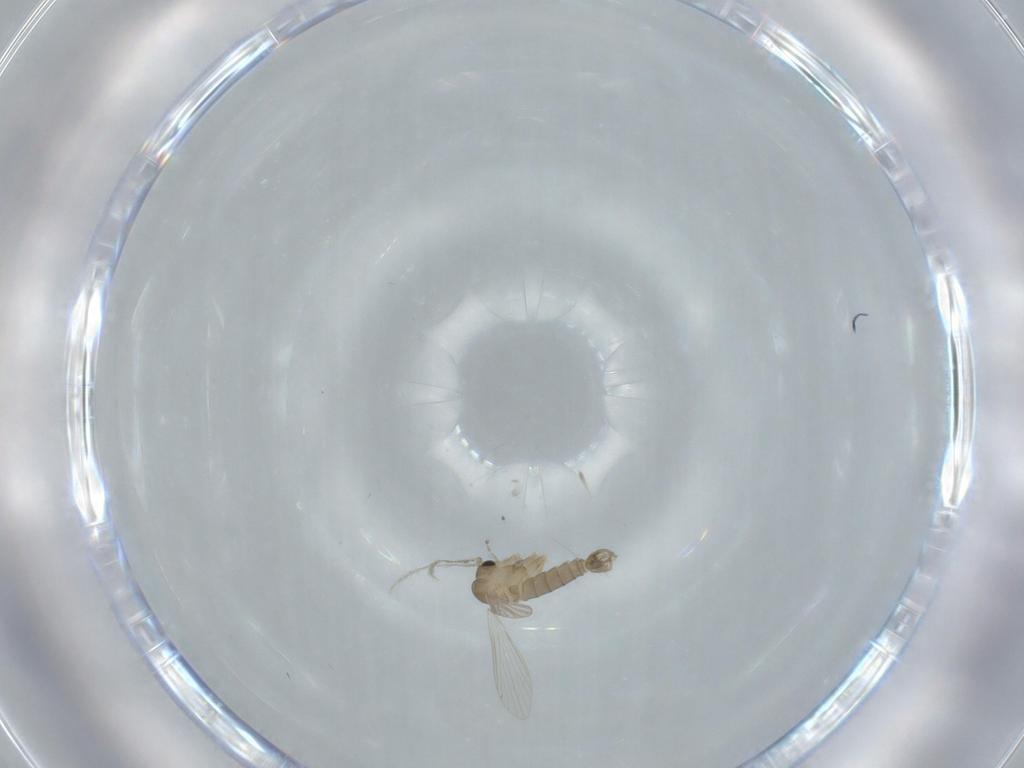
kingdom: Animalia
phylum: Arthropoda
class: Insecta
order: Diptera
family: Psychodidae
